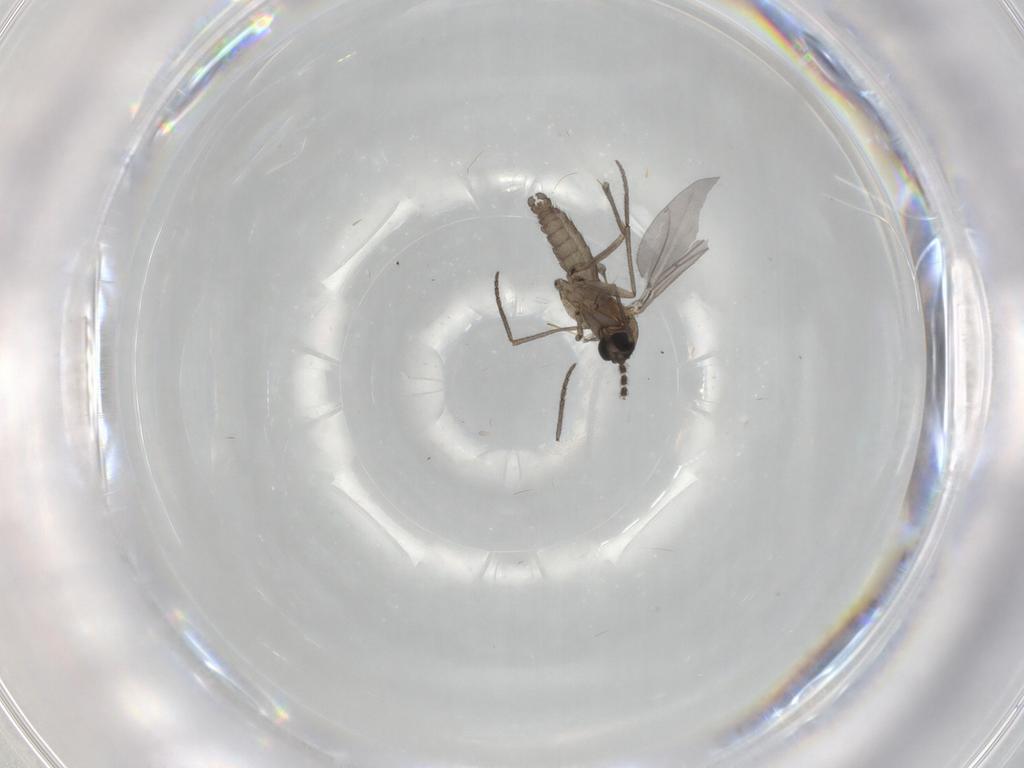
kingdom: Animalia
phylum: Arthropoda
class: Insecta
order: Diptera
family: Sciaridae
